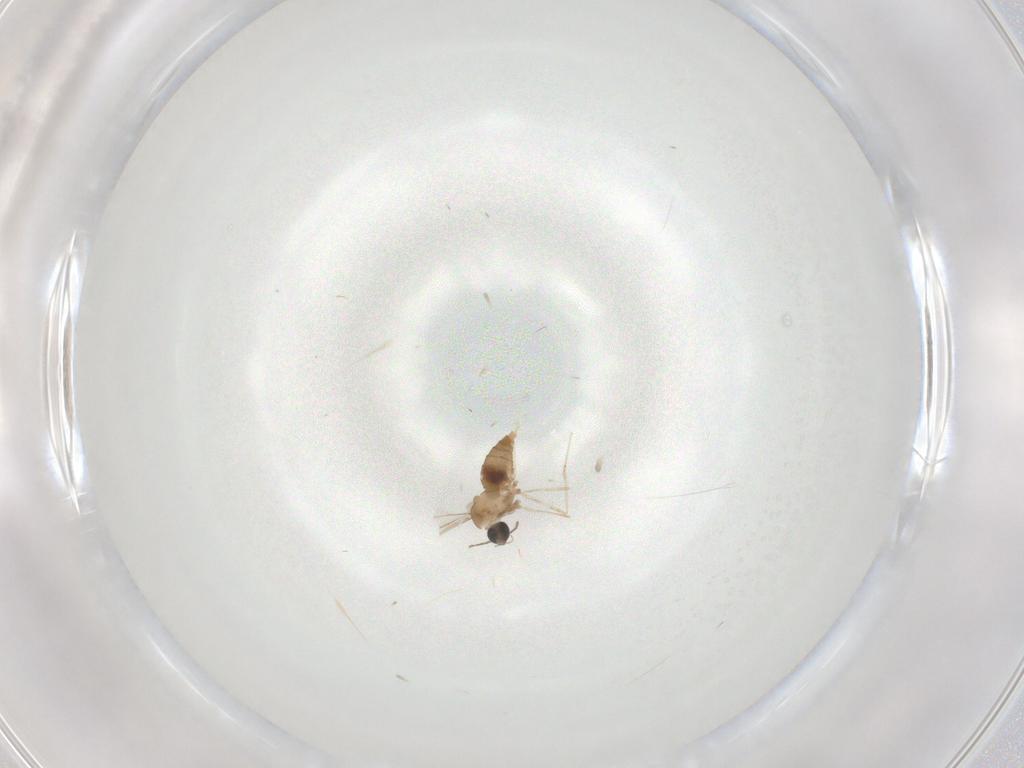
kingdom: Animalia
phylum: Arthropoda
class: Insecta
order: Diptera
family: Cecidomyiidae
